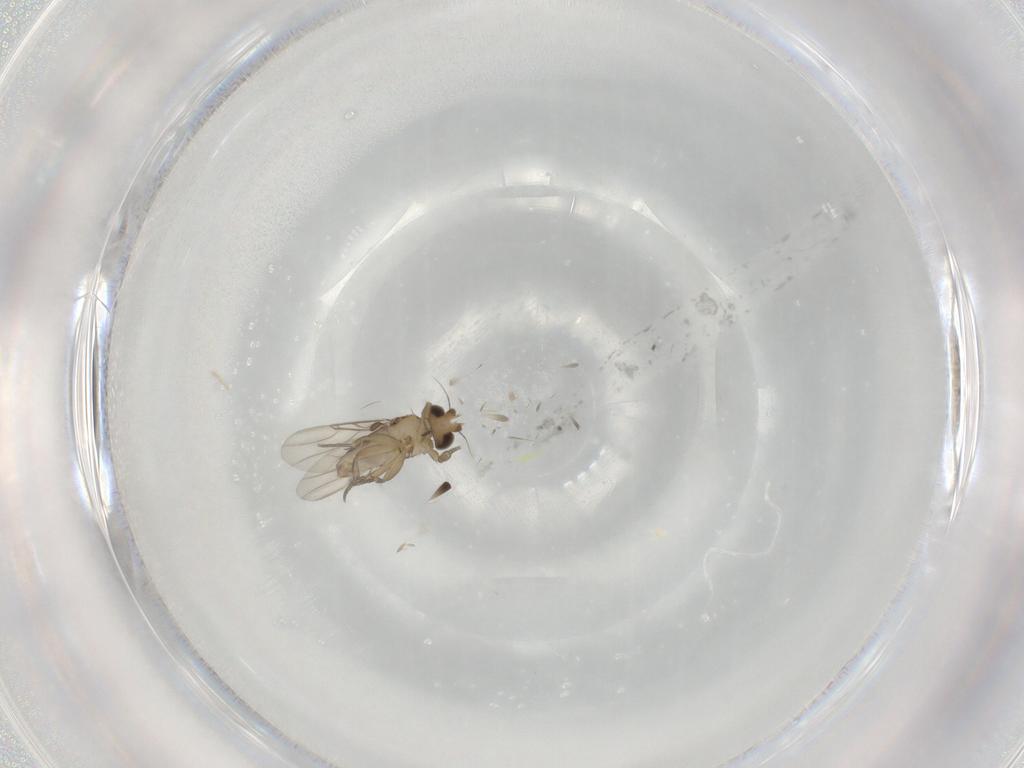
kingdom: Animalia
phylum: Arthropoda
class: Insecta
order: Diptera
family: Phoridae
